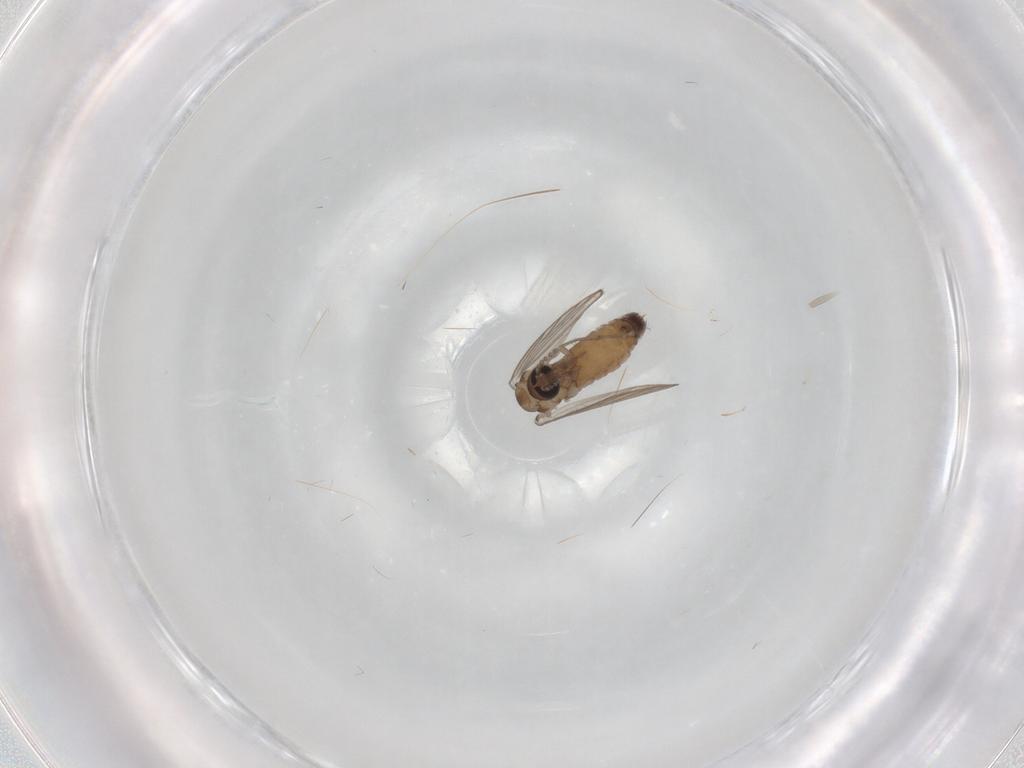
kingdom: Animalia
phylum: Arthropoda
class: Insecta
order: Diptera
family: Psychodidae
